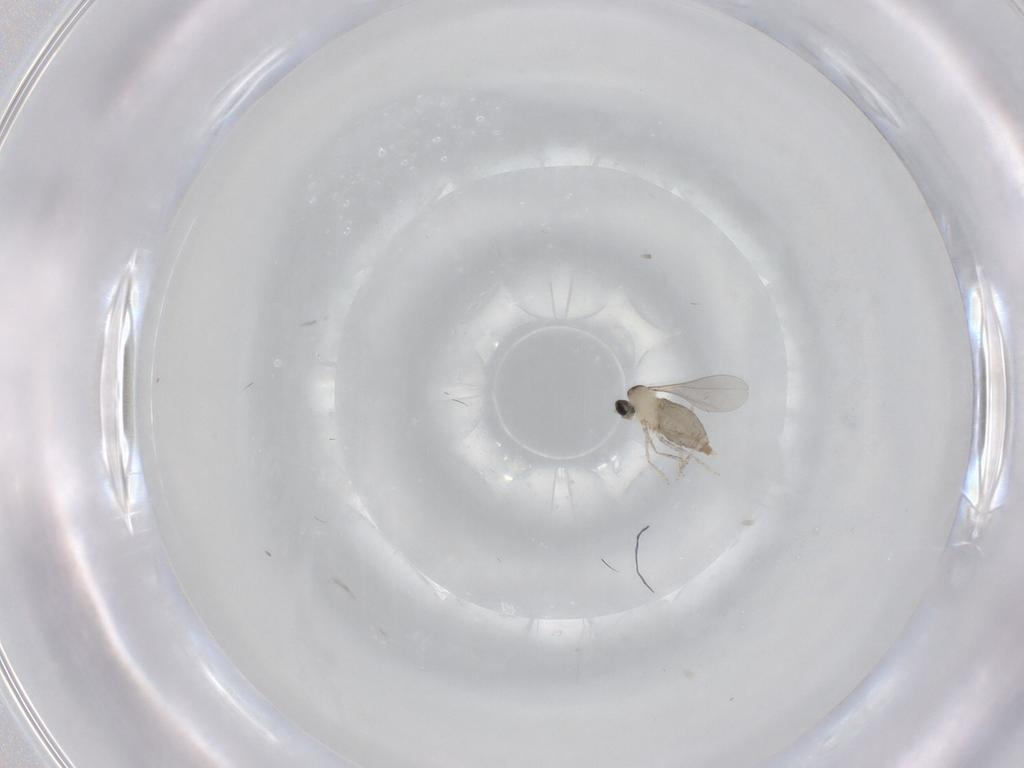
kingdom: Animalia
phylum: Arthropoda
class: Insecta
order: Diptera
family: Cecidomyiidae
